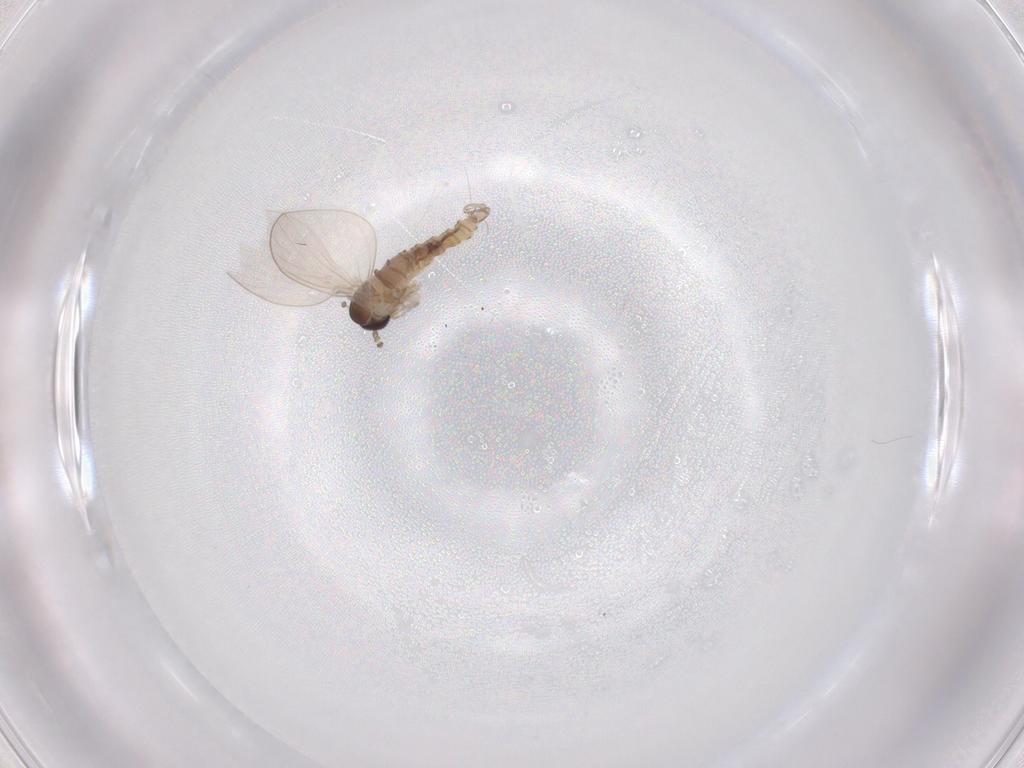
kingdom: Animalia
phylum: Arthropoda
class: Insecta
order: Diptera
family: Psychodidae
